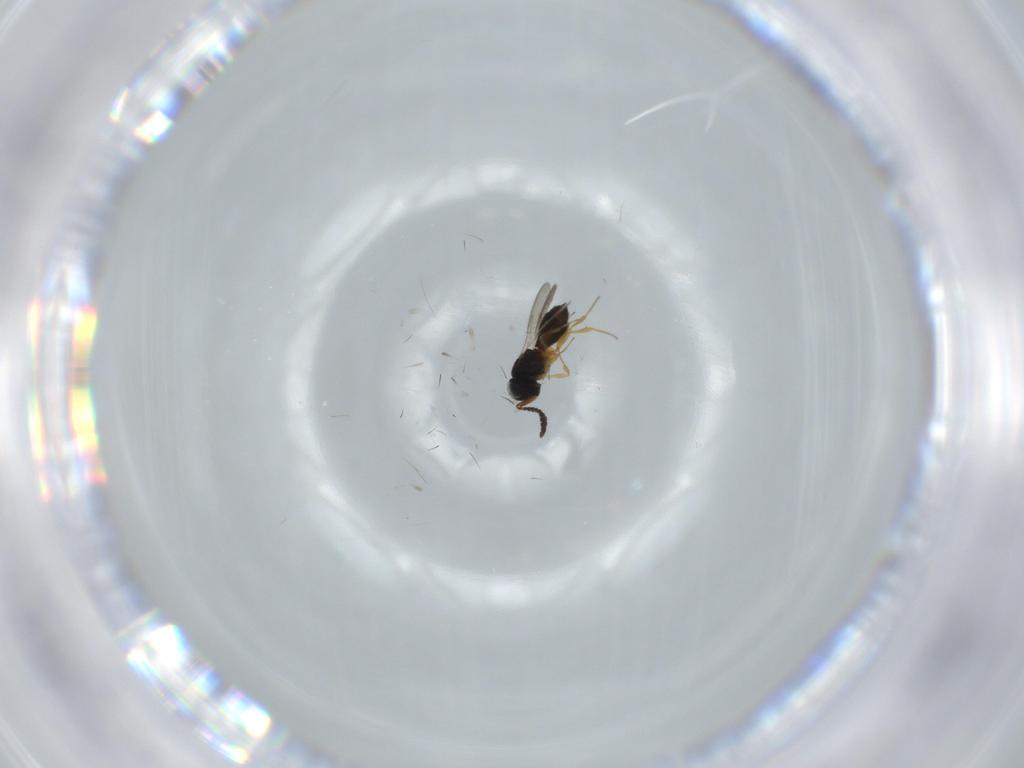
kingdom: Animalia
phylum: Arthropoda
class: Insecta
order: Hymenoptera
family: Scelionidae
